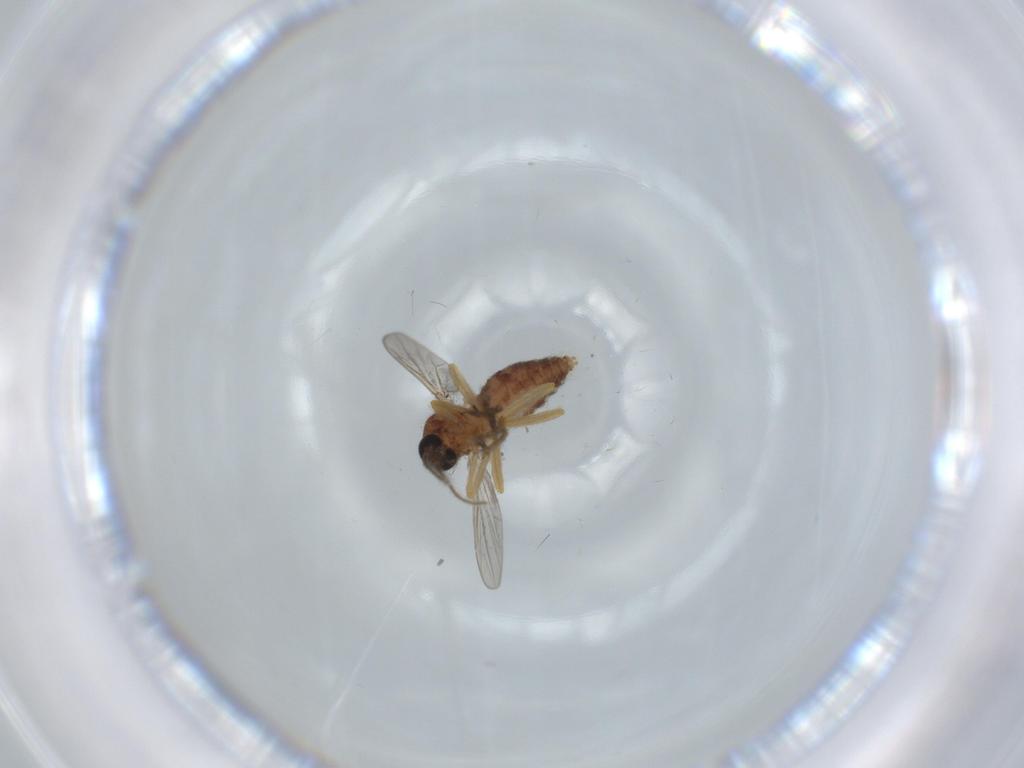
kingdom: Animalia
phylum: Arthropoda
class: Insecta
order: Diptera
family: Ceratopogonidae
